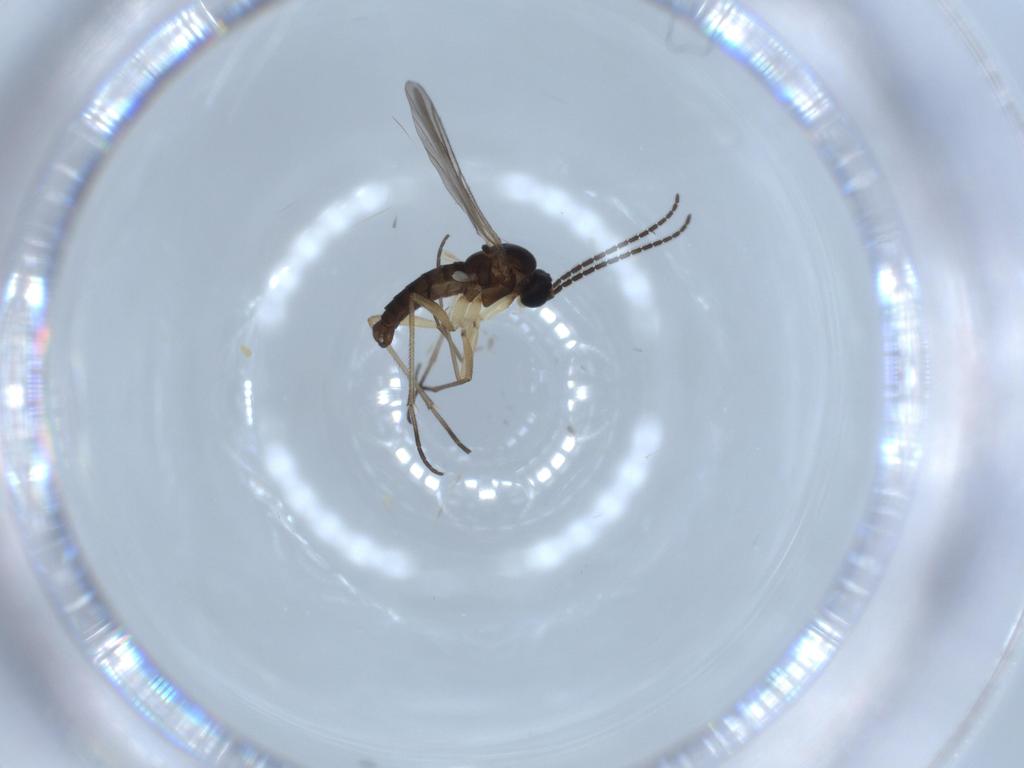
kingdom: Animalia
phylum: Arthropoda
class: Insecta
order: Diptera
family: Sciaridae
